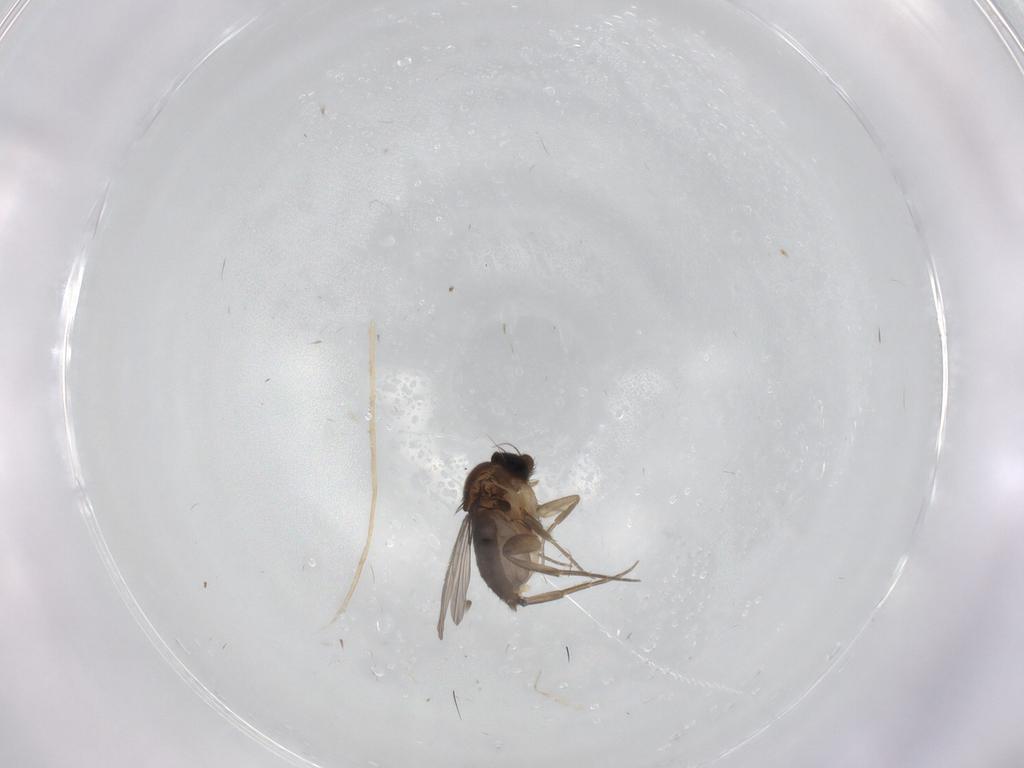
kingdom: Animalia
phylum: Arthropoda
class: Insecta
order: Diptera
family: Phoridae
